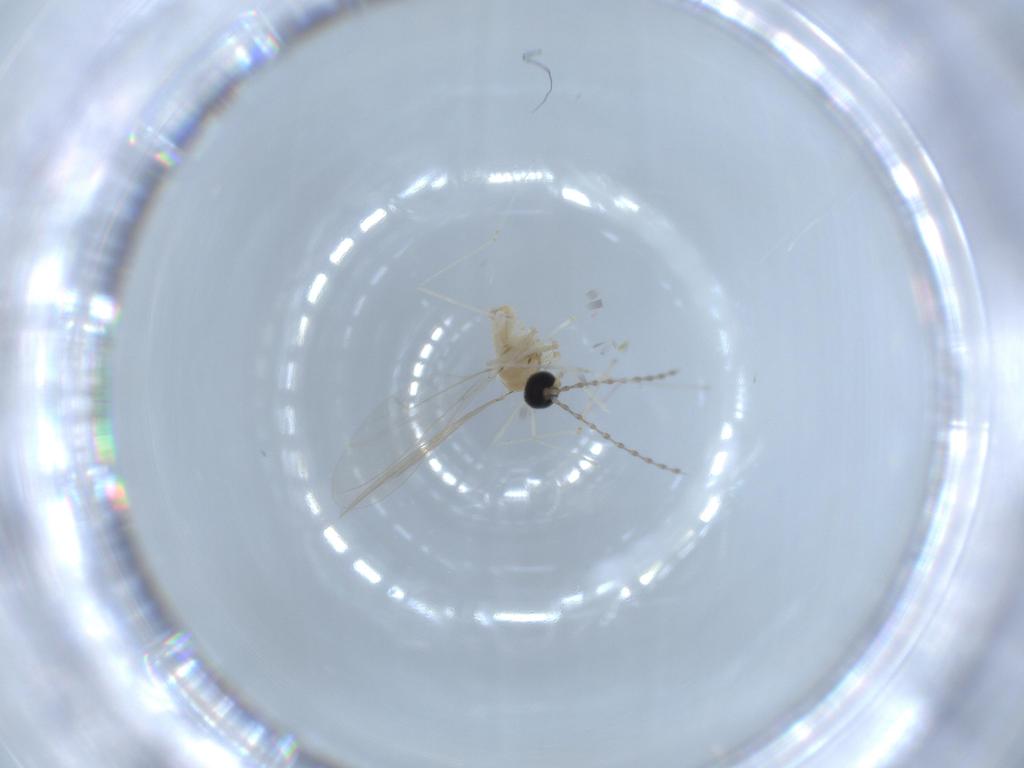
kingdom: Animalia
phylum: Arthropoda
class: Insecta
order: Diptera
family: Cecidomyiidae
